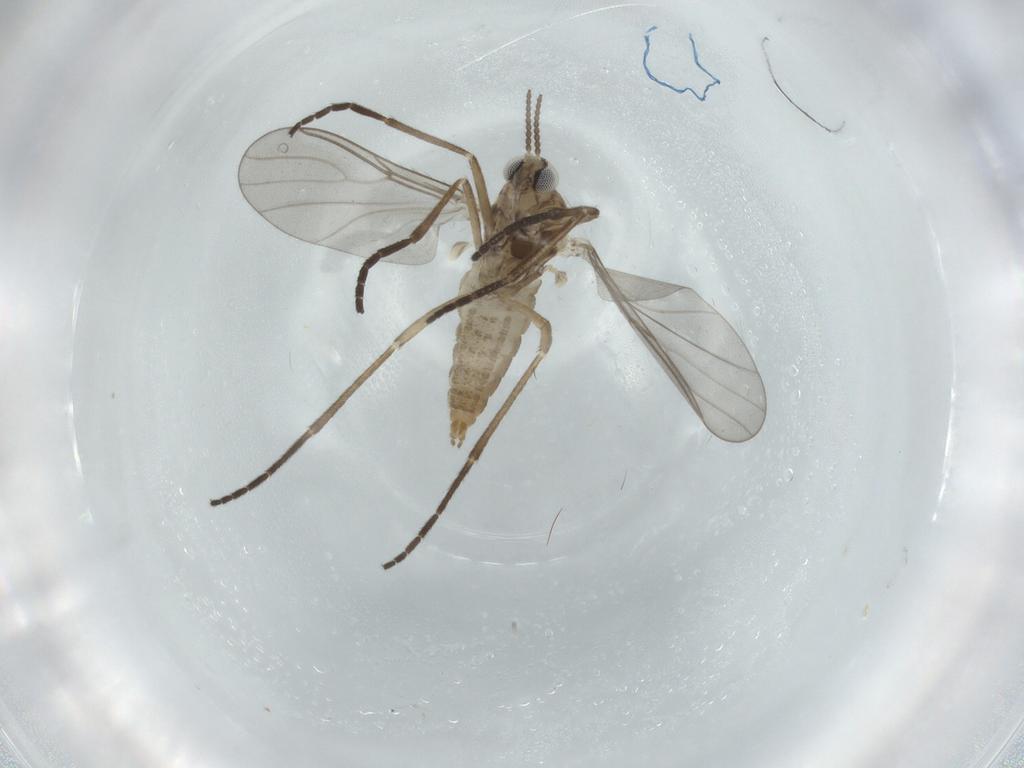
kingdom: Animalia
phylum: Arthropoda
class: Insecta
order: Diptera
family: Cecidomyiidae
